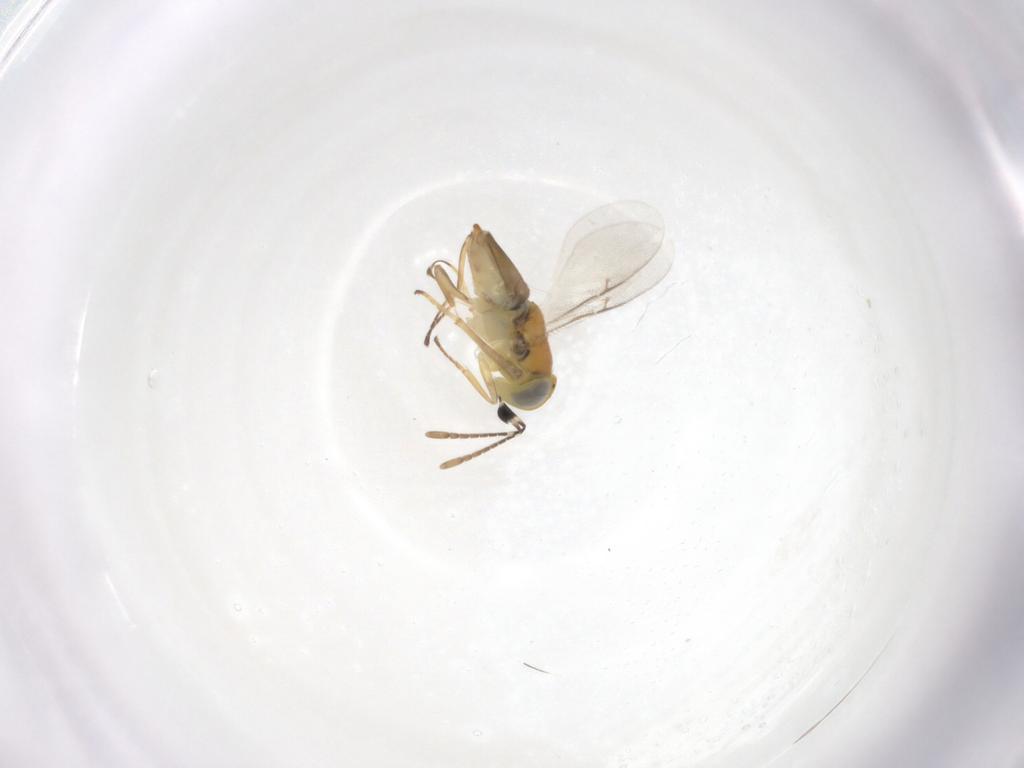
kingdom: Animalia
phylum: Arthropoda
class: Insecta
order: Hymenoptera
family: Encyrtidae
